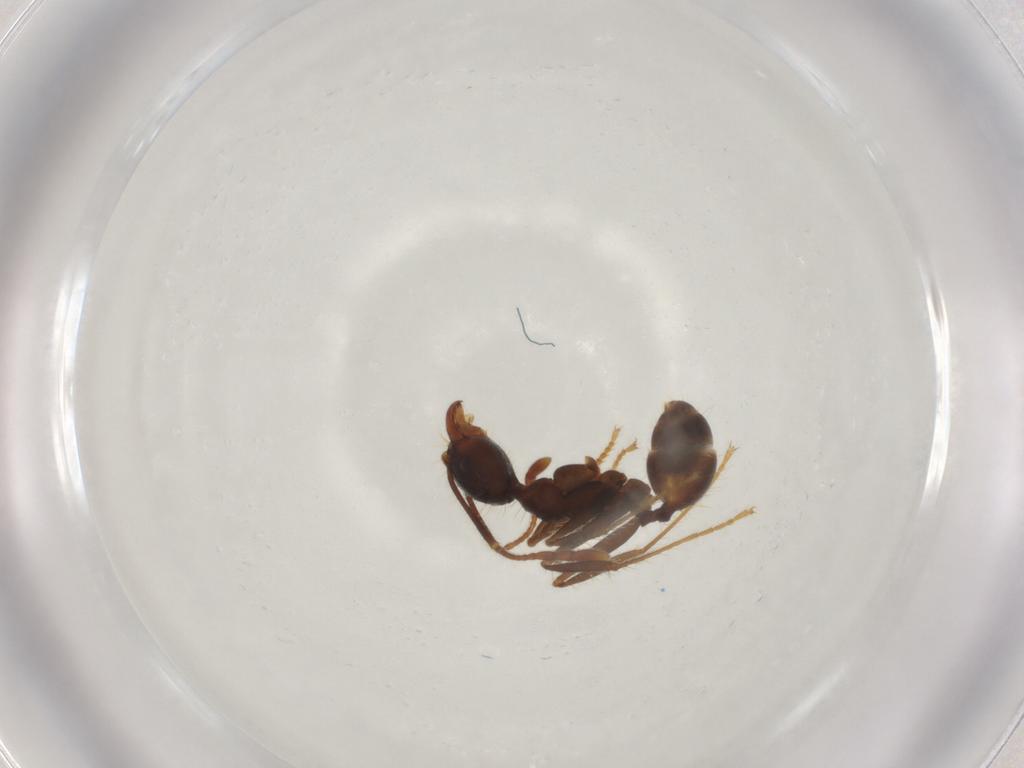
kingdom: Animalia
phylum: Arthropoda
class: Insecta
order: Hymenoptera
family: Formicidae
